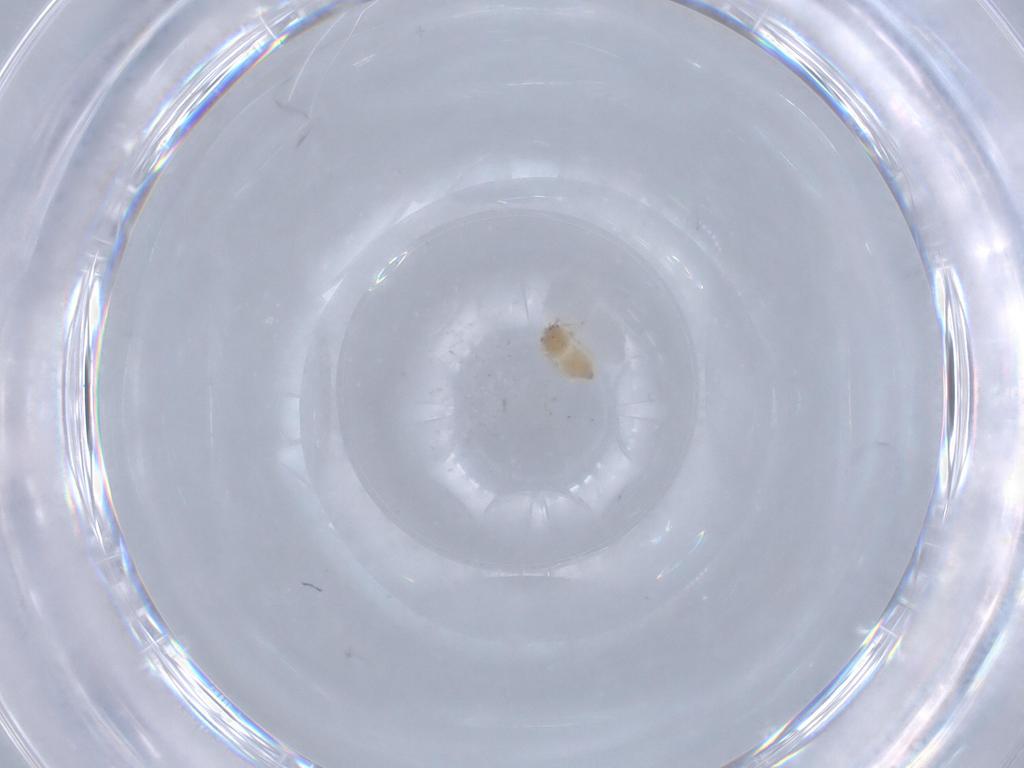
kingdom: Animalia
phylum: Arthropoda
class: Insecta
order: Hemiptera
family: Aleyrodidae
